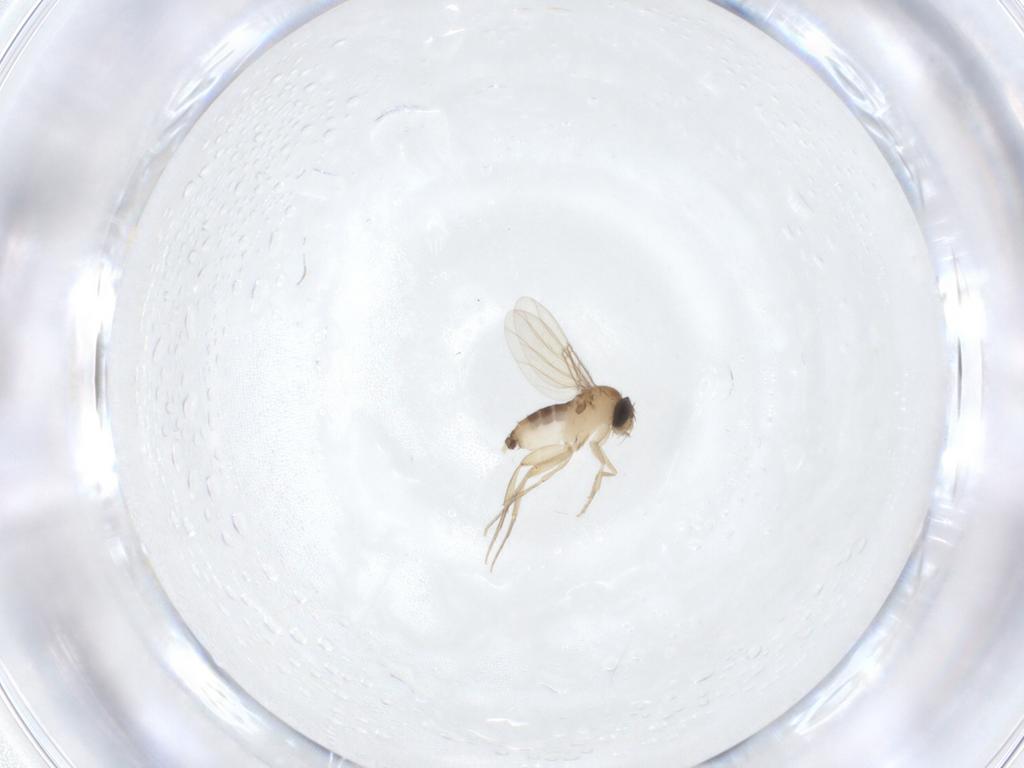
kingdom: Animalia
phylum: Arthropoda
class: Insecta
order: Diptera
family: Phoridae
